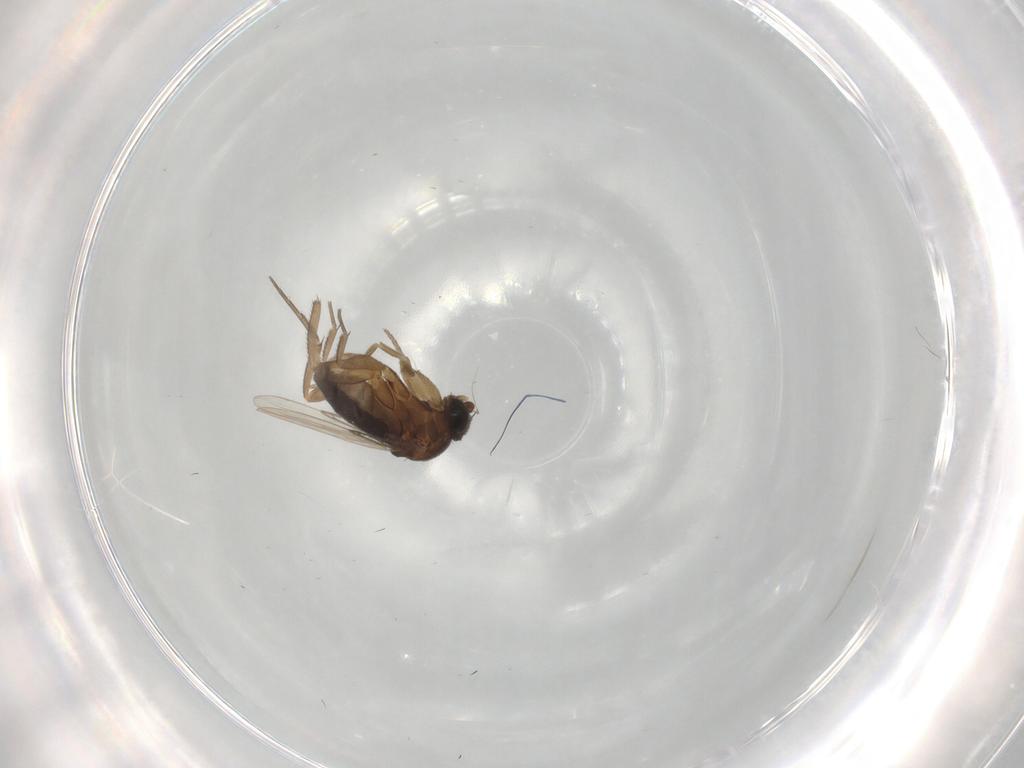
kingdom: Animalia
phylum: Arthropoda
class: Insecta
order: Diptera
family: Phoridae
